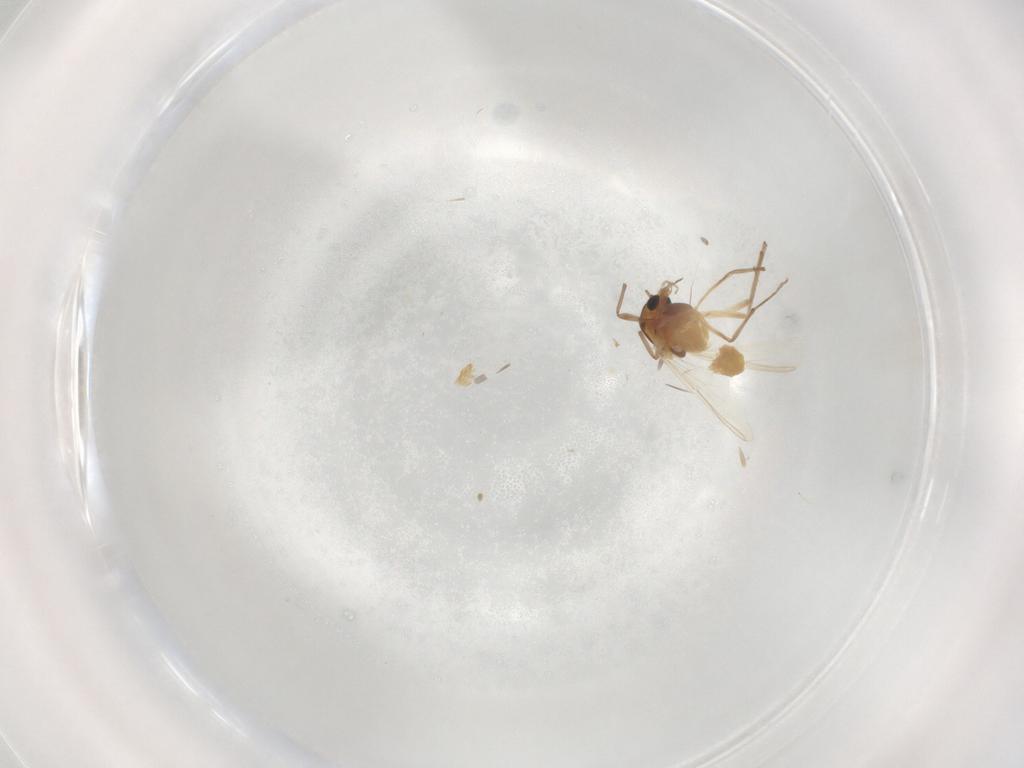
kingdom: Animalia
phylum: Arthropoda
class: Insecta
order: Diptera
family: Chironomidae
